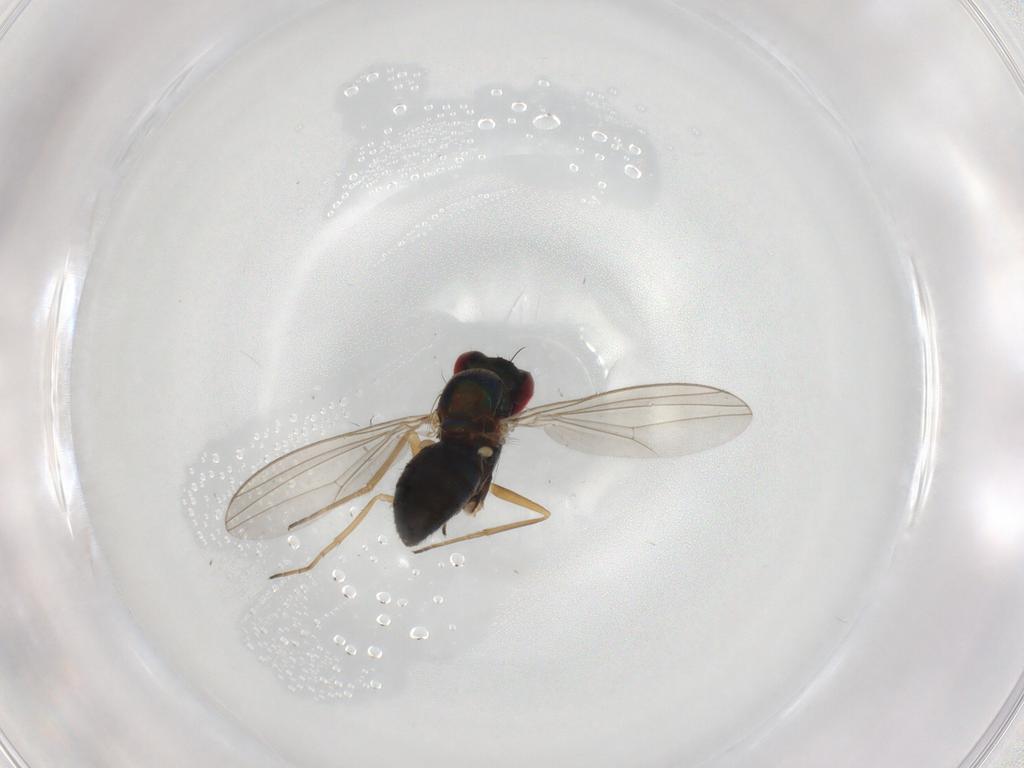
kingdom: Animalia
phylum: Arthropoda
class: Insecta
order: Diptera
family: Dolichopodidae
